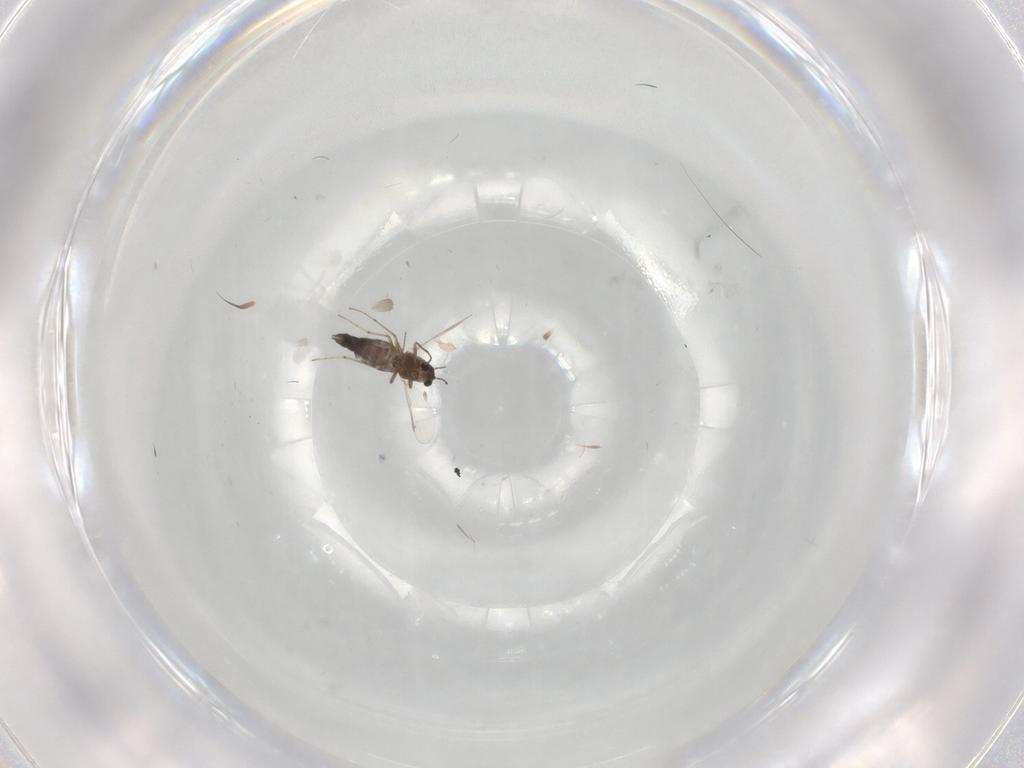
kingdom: Animalia
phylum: Arthropoda
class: Insecta
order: Diptera
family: Chironomidae
